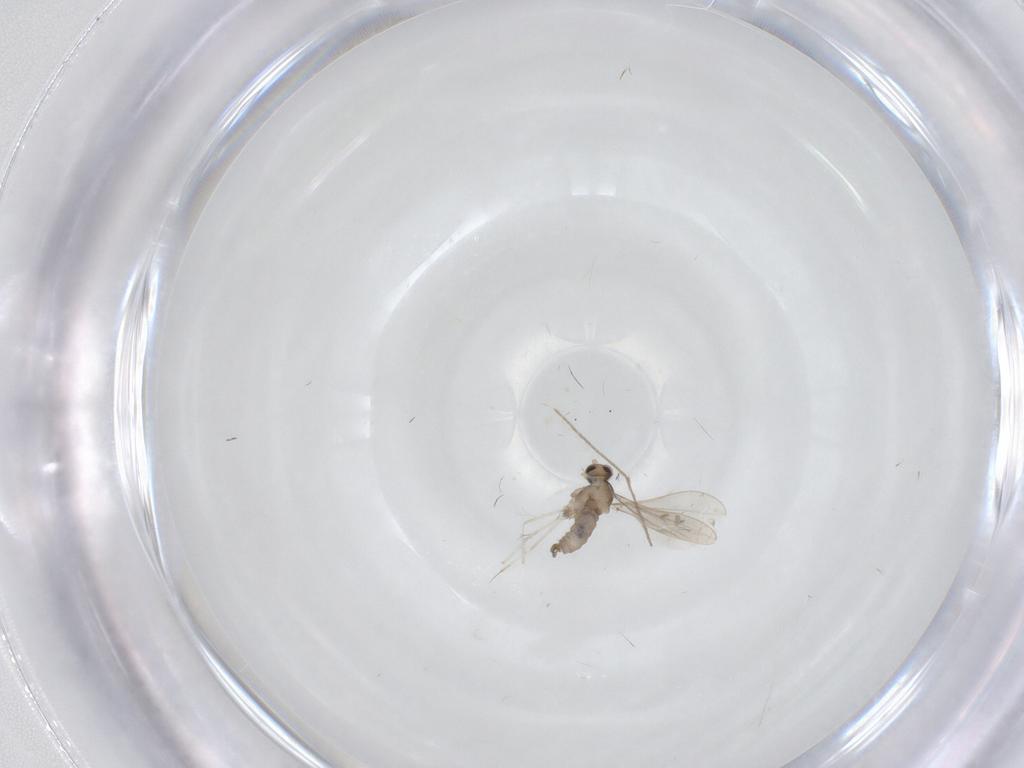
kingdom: Animalia
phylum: Arthropoda
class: Insecta
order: Diptera
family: Cecidomyiidae
